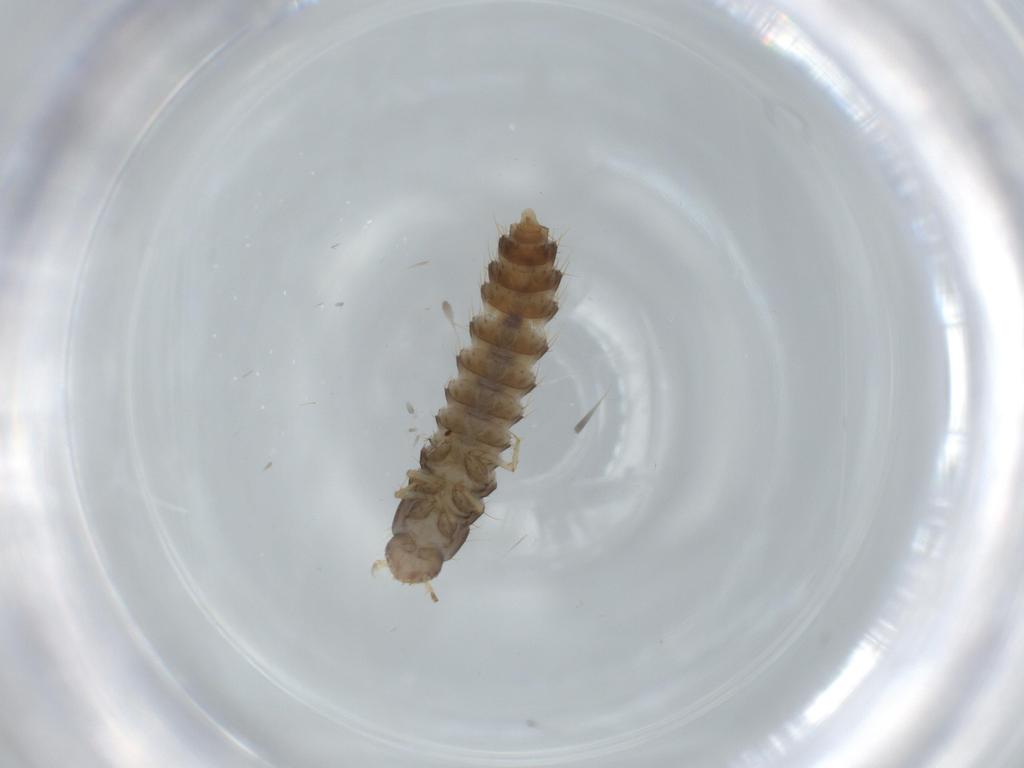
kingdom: Animalia
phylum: Arthropoda
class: Insecta
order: Coleoptera
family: Staphylinidae
